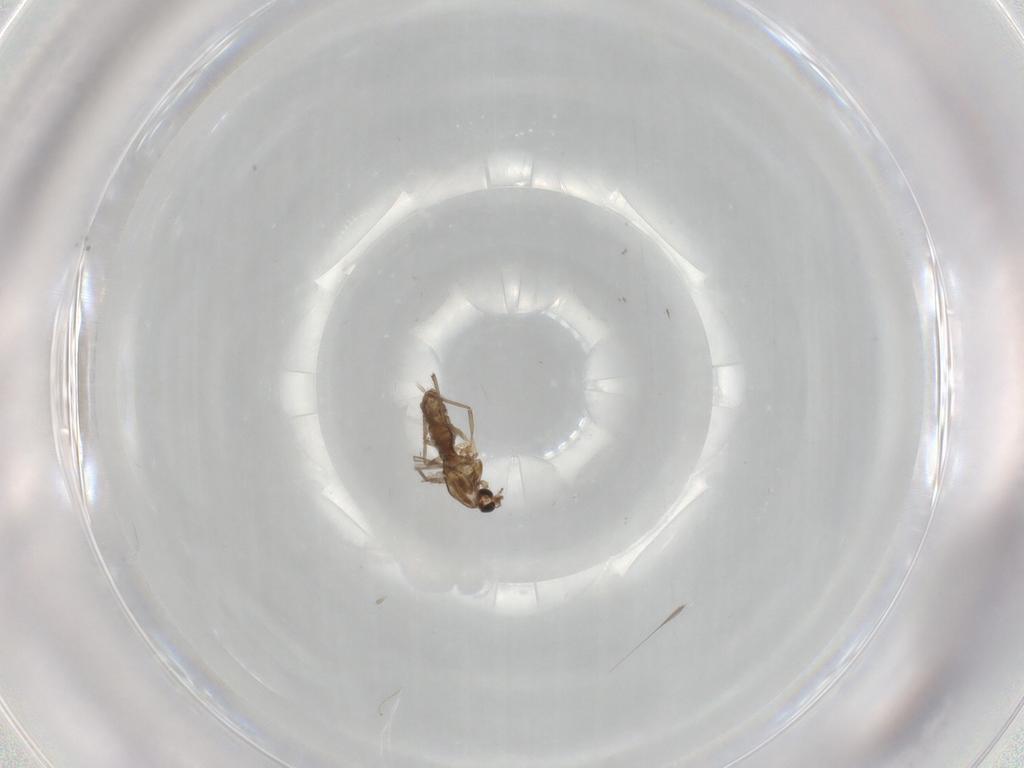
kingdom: Animalia
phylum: Arthropoda
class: Insecta
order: Diptera
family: Chironomidae
